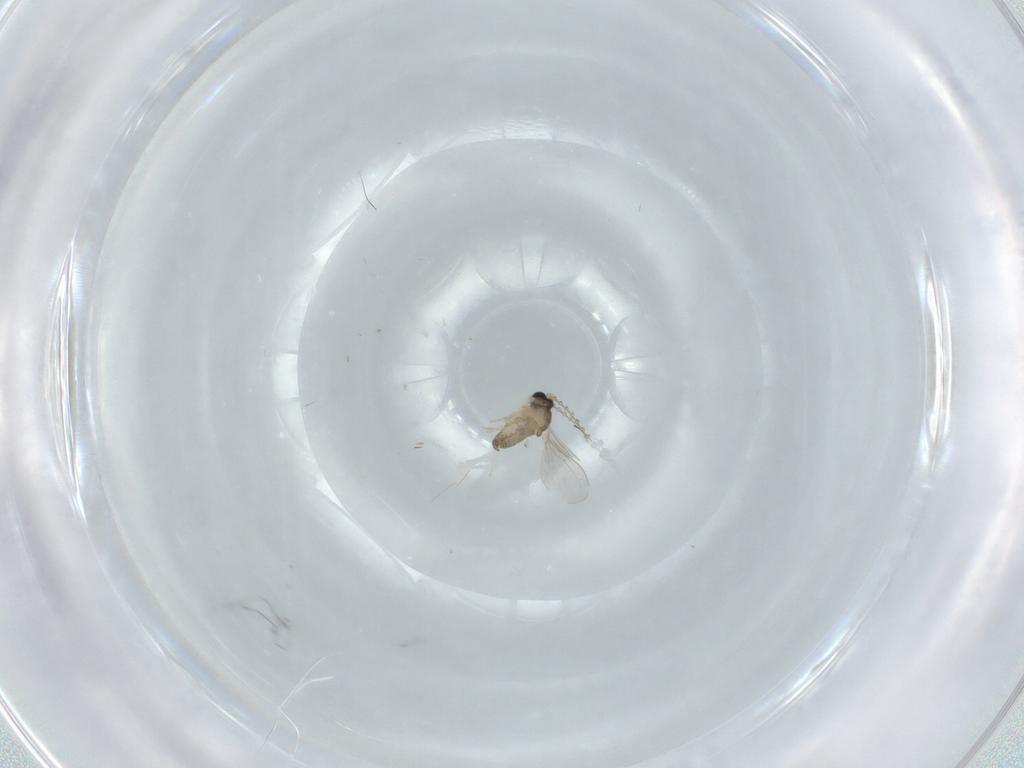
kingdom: Animalia
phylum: Arthropoda
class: Insecta
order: Diptera
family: Cecidomyiidae
